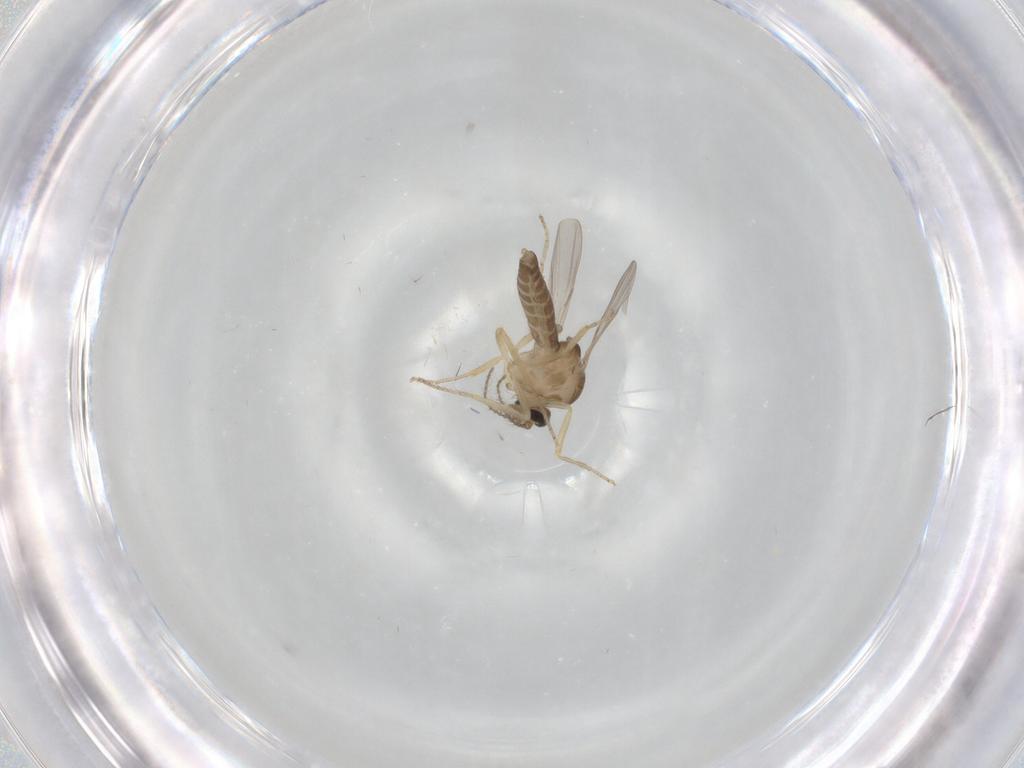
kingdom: Animalia
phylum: Arthropoda
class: Insecta
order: Diptera
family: Ceratopogonidae
